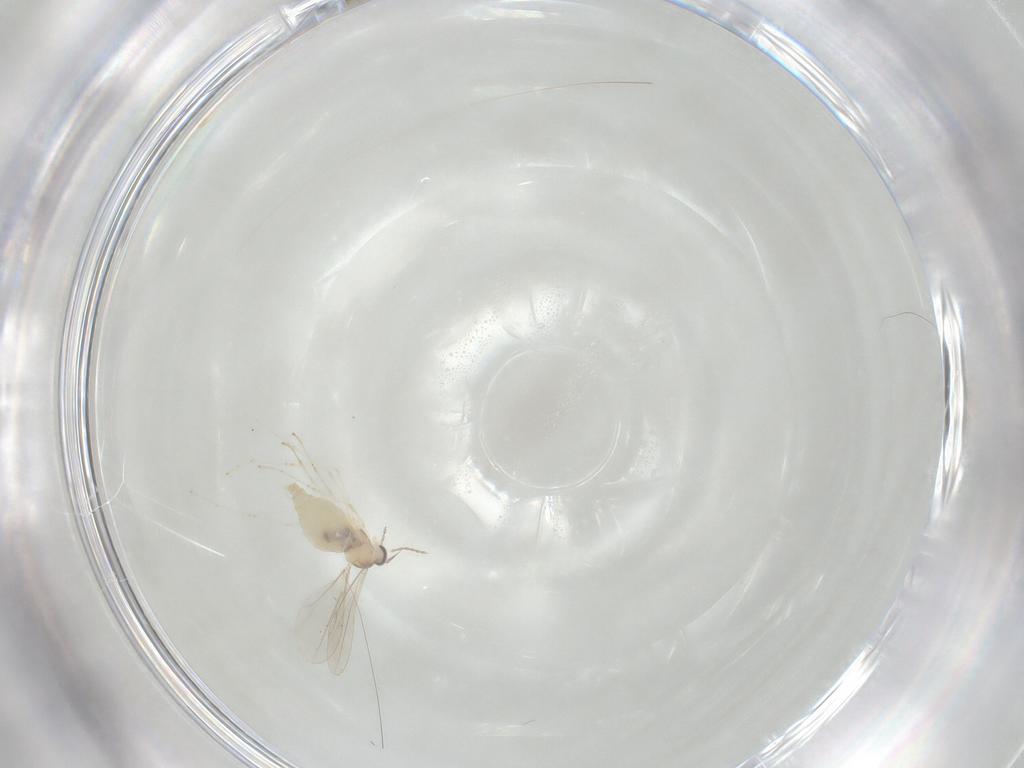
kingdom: Animalia
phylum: Arthropoda
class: Insecta
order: Diptera
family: Cecidomyiidae
